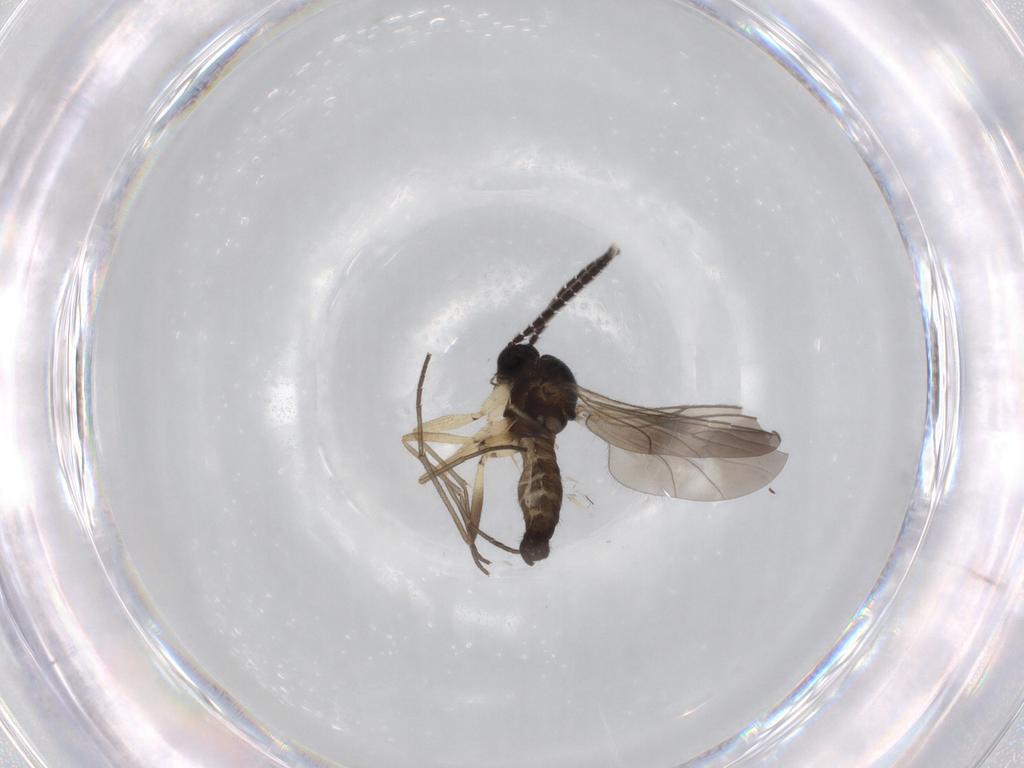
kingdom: Animalia
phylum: Arthropoda
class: Insecta
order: Diptera
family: Sciaridae
